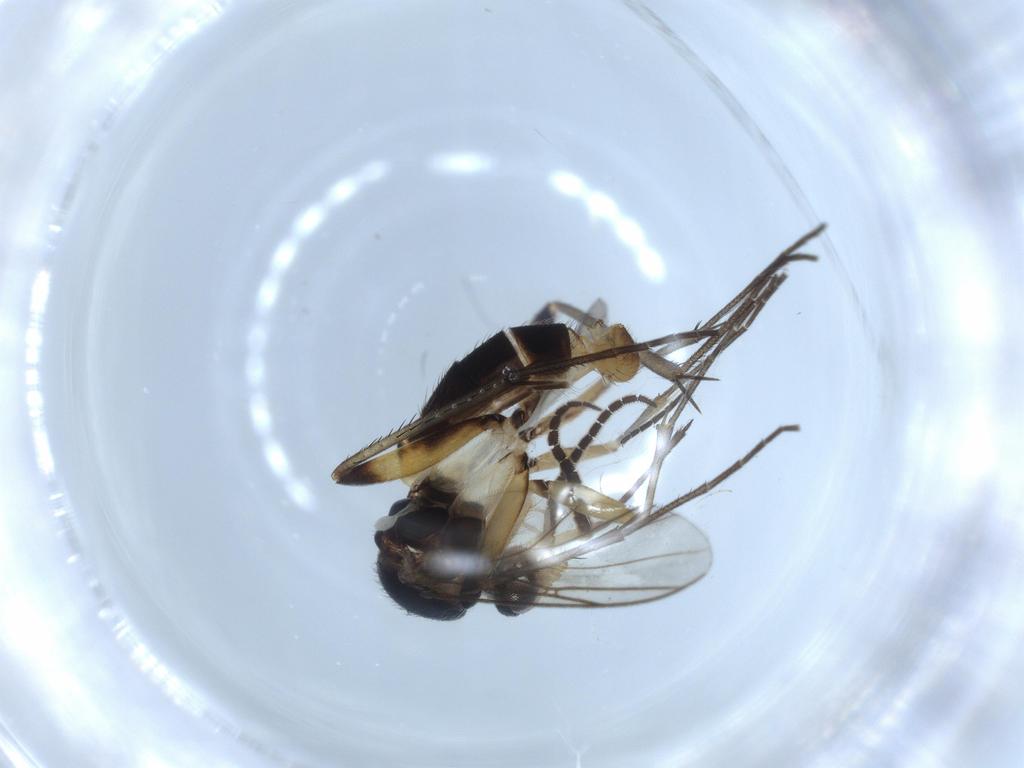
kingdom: Animalia
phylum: Arthropoda
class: Insecta
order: Diptera
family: Mycetophilidae
